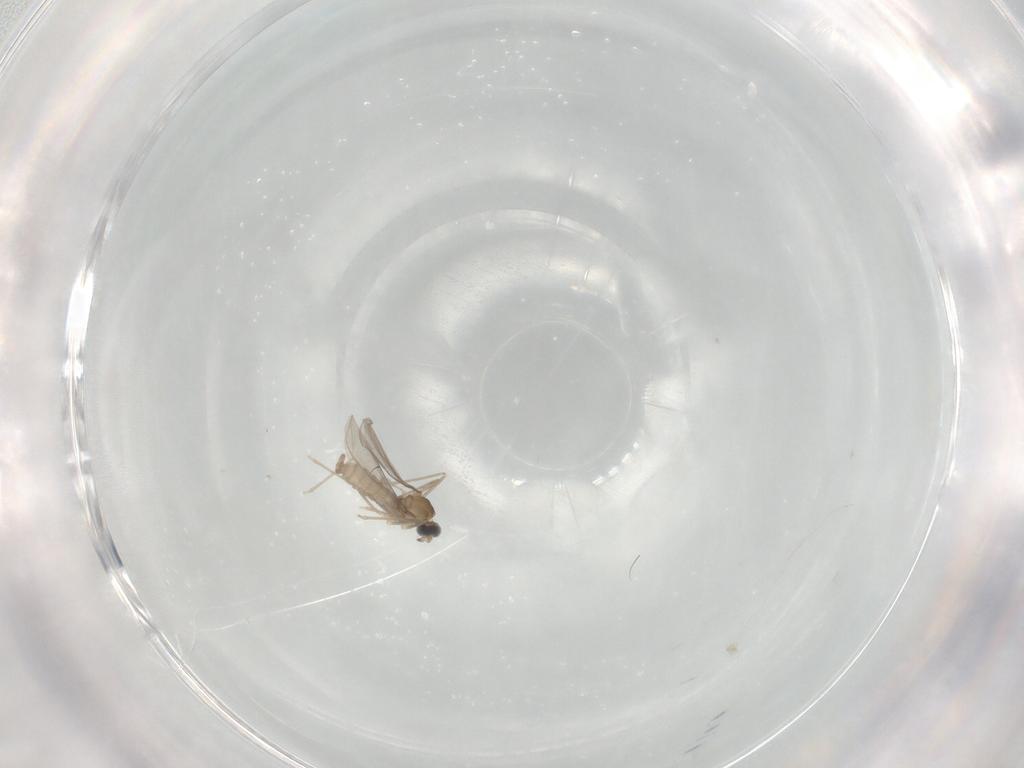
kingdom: Animalia
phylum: Arthropoda
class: Insecta
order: Diptera
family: Cecidomyiidae
